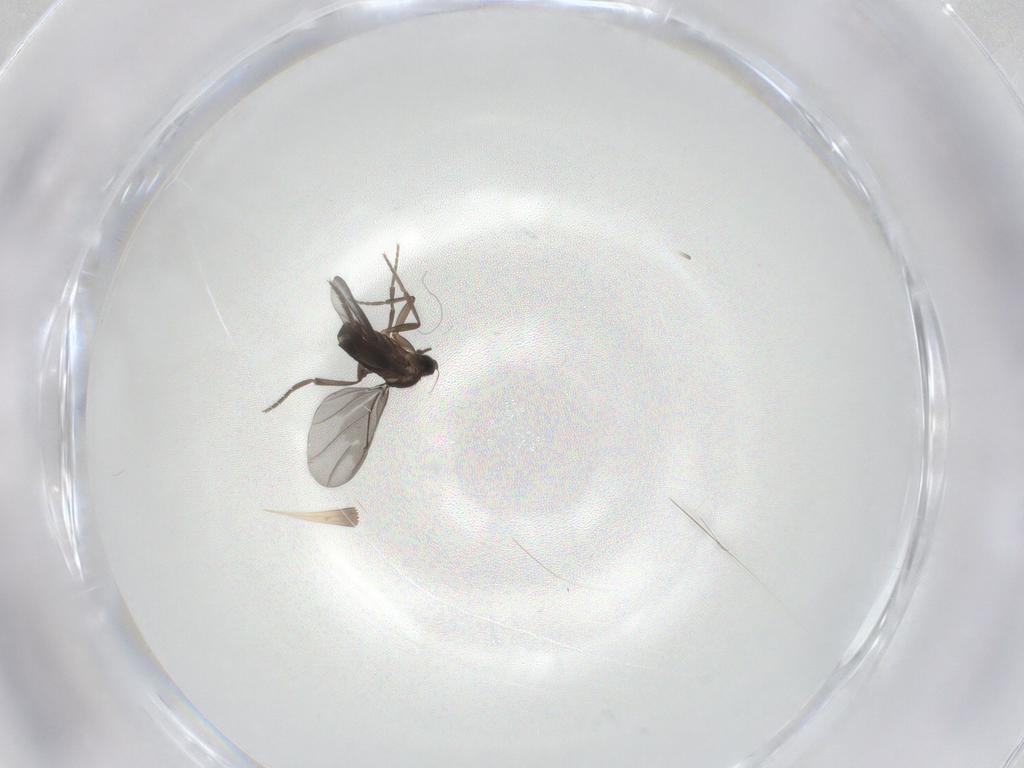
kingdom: Animalia
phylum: Arthropoda
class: Insecta
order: Diptera
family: Phoridae
